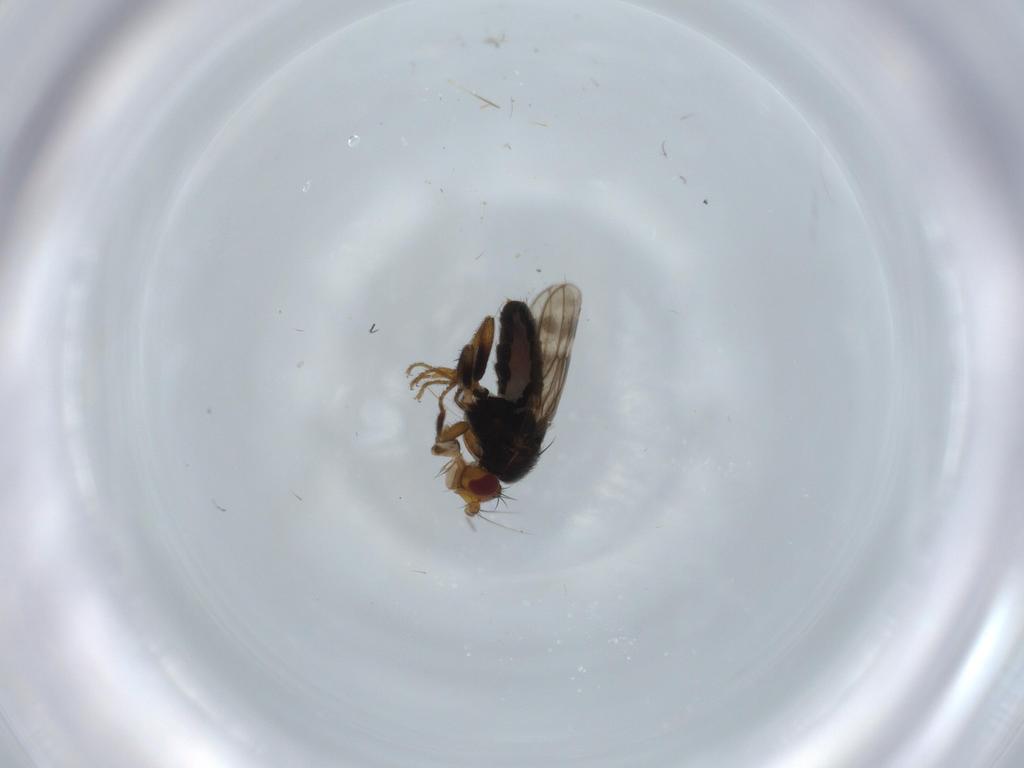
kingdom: Animalia
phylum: Arthropoda
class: Insecta
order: Diptera
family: Sphaeroceridae
